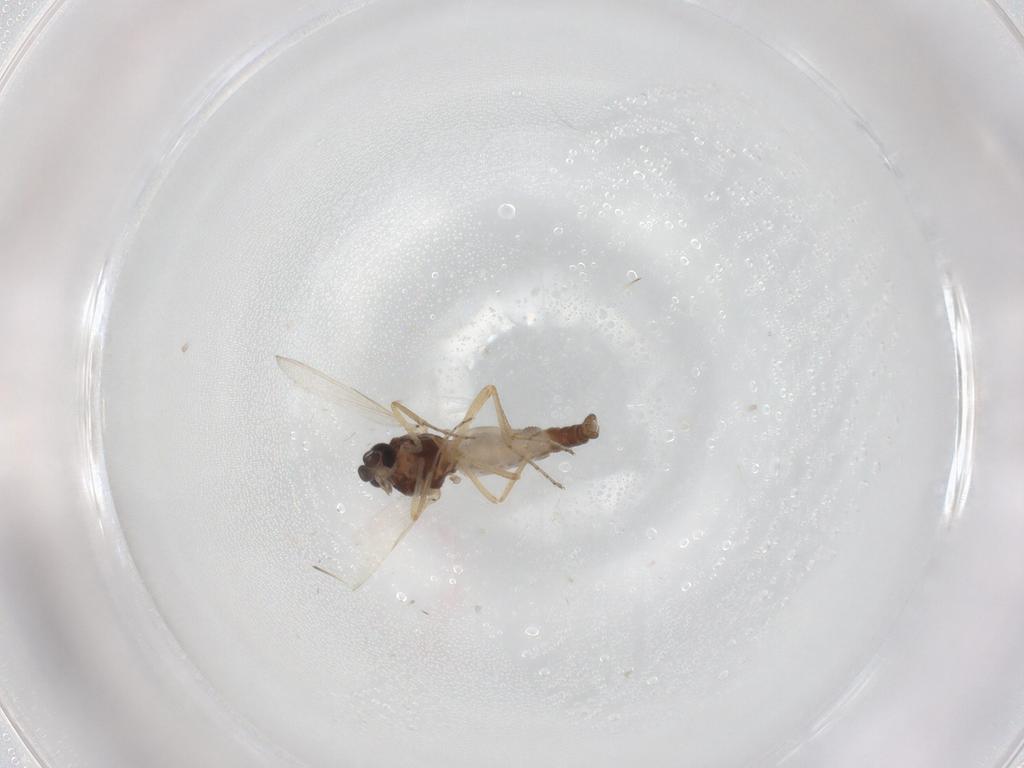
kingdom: Animalia
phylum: Arthropoda
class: Insecta
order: Diptera
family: Ceratopogonidae
